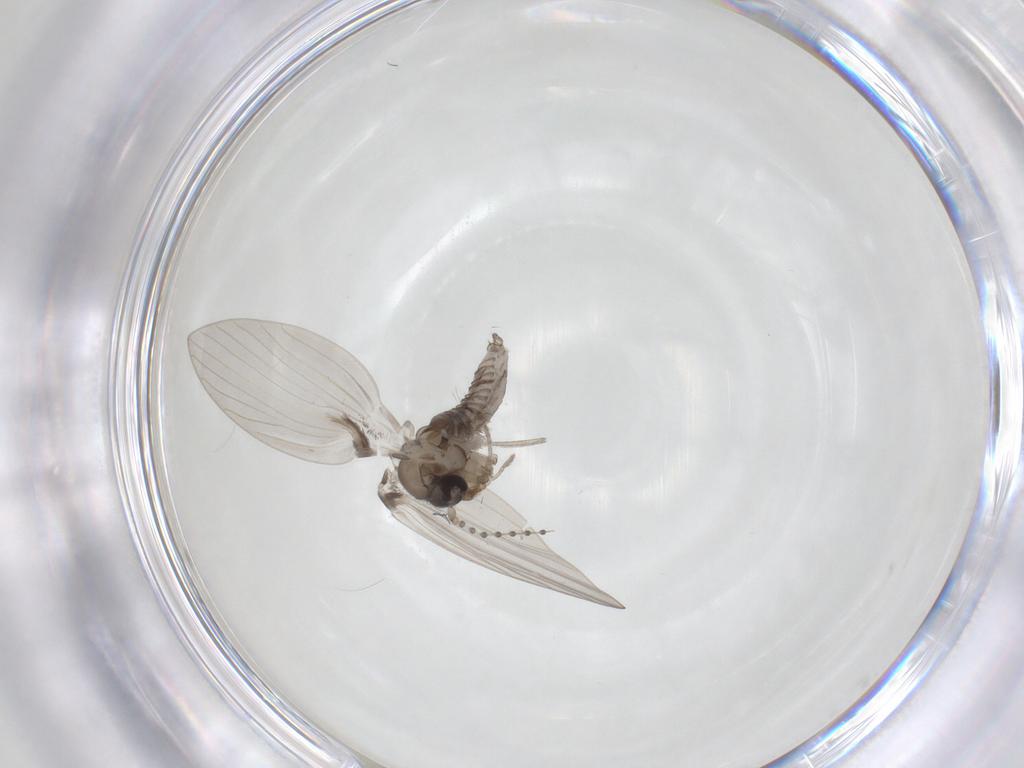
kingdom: Animalia
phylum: Arthropoda
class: Insecta
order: Diptera
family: Psychodidae
